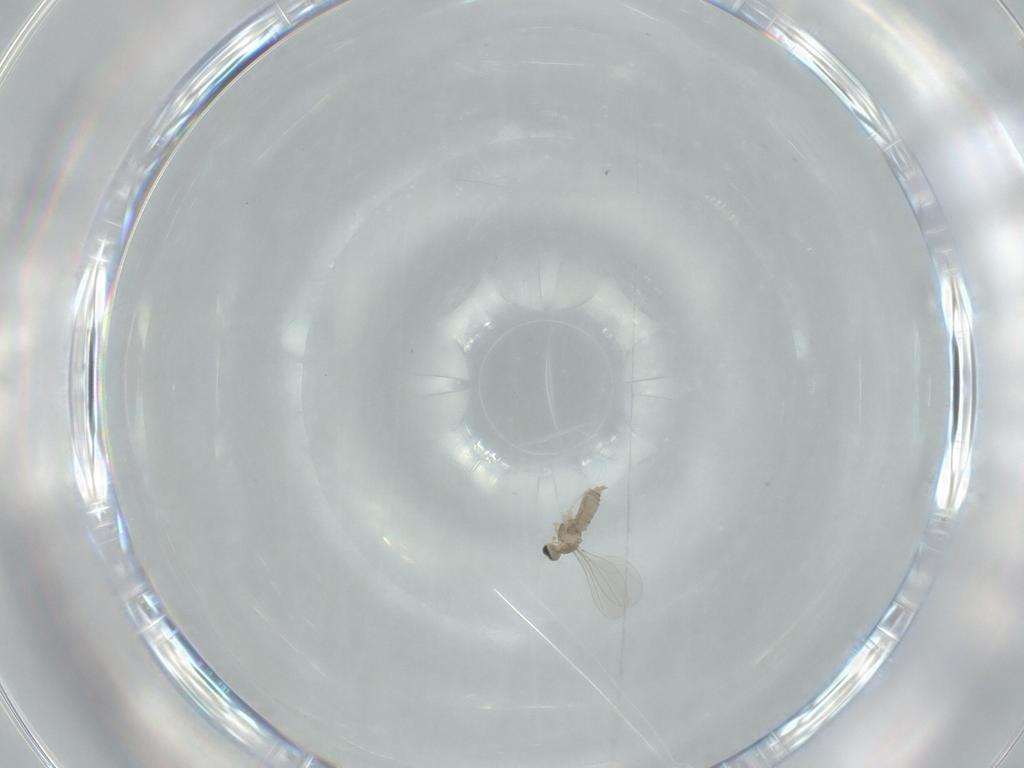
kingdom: Animalia
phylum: Arthropoda
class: Insecta
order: Diptera
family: Cecidomyiidae
